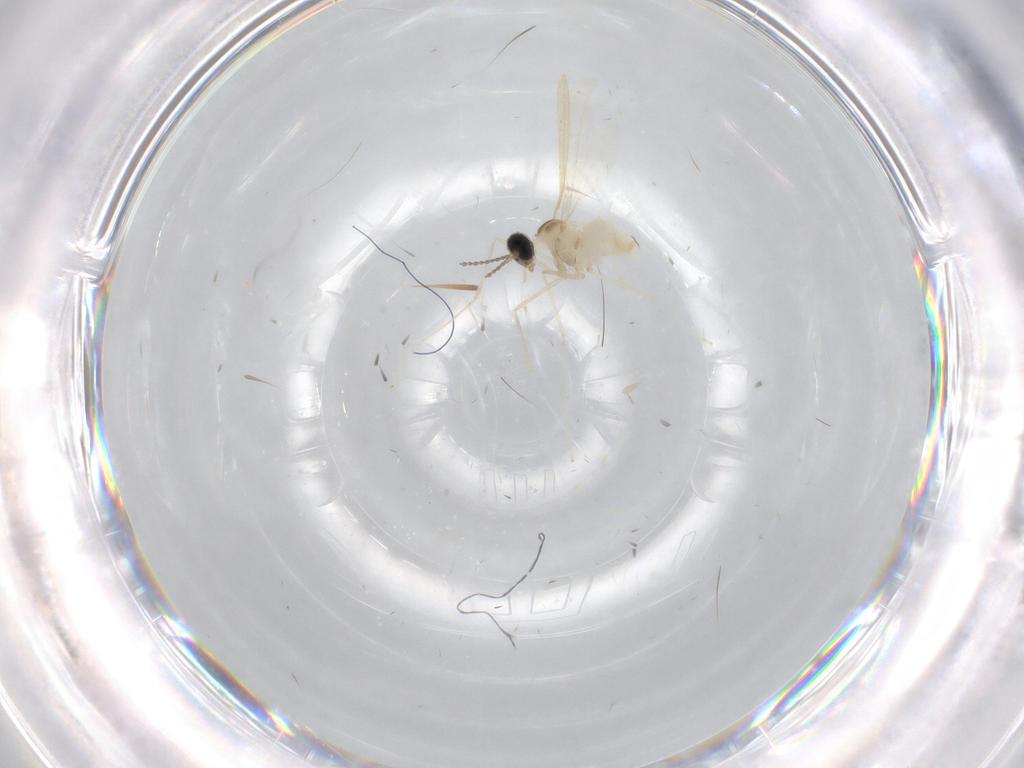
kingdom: Animalia
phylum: Arthropoda
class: Insecta
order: Diptera
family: Cecidomyiidae
